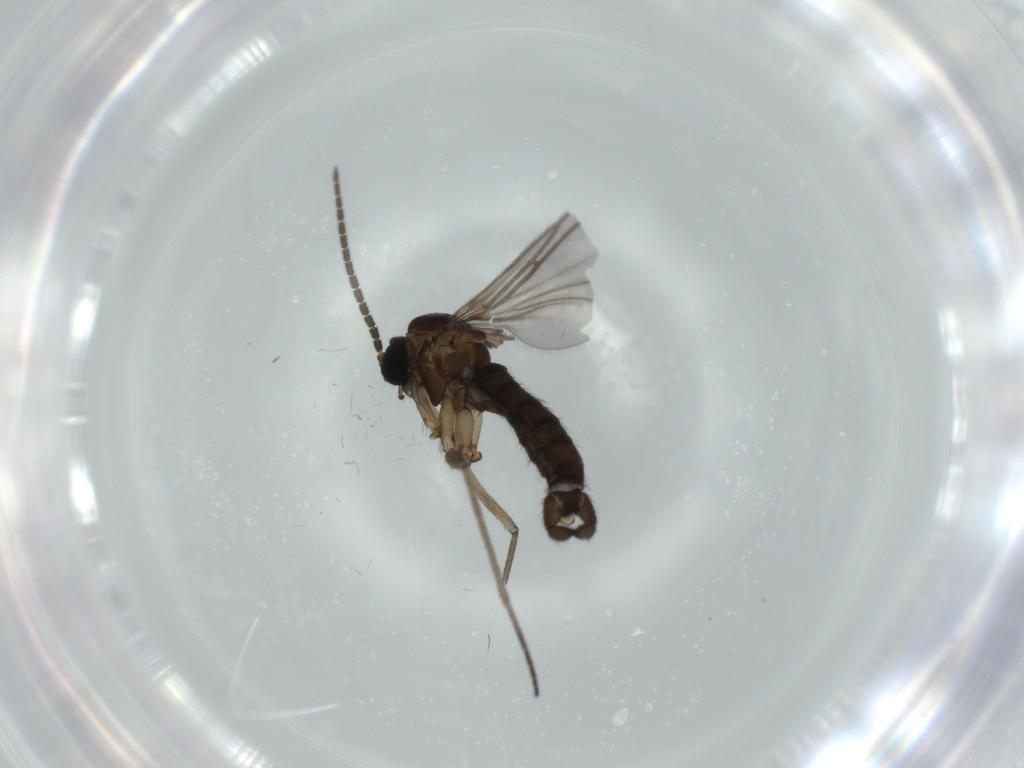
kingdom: Animalia
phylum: Arthropoda
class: Insecta
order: Diptera
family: Sciaridae
